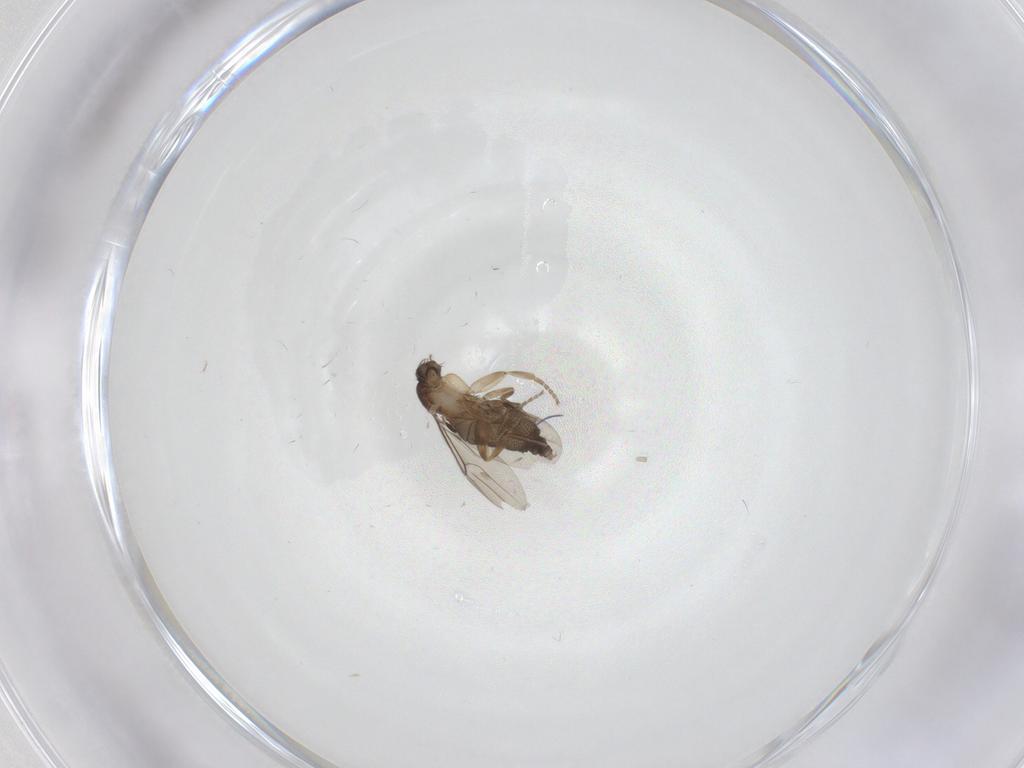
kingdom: Animalia
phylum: Arthropoda
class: Insecta
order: Diptera
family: Phoridae
